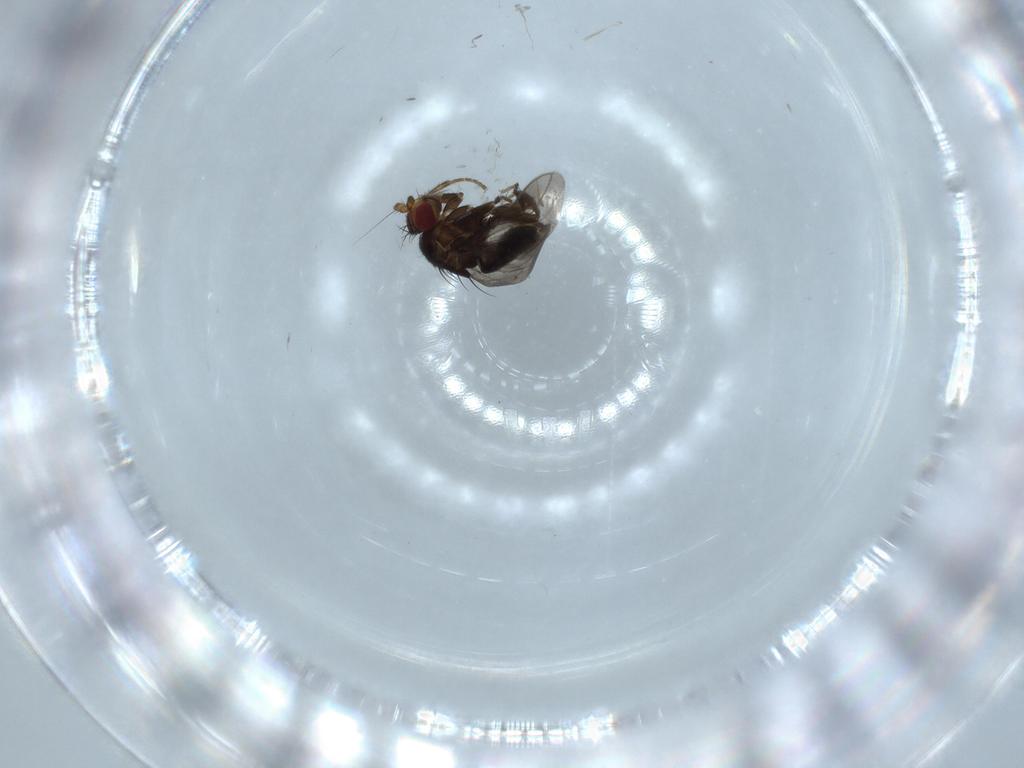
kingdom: Animalia
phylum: Arthropoda
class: Insecta
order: Diptera
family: Sphaeroceridae
